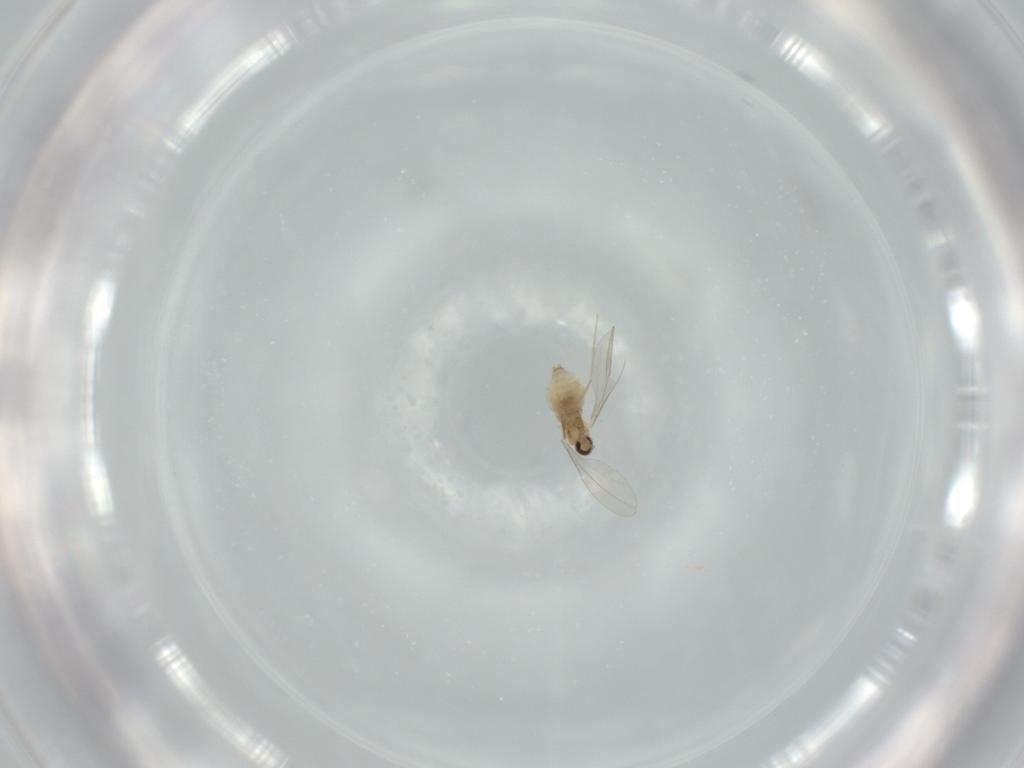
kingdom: Animalia
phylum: Arthropoda
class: Insecta
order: Diptera
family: Cecidomyiidae
